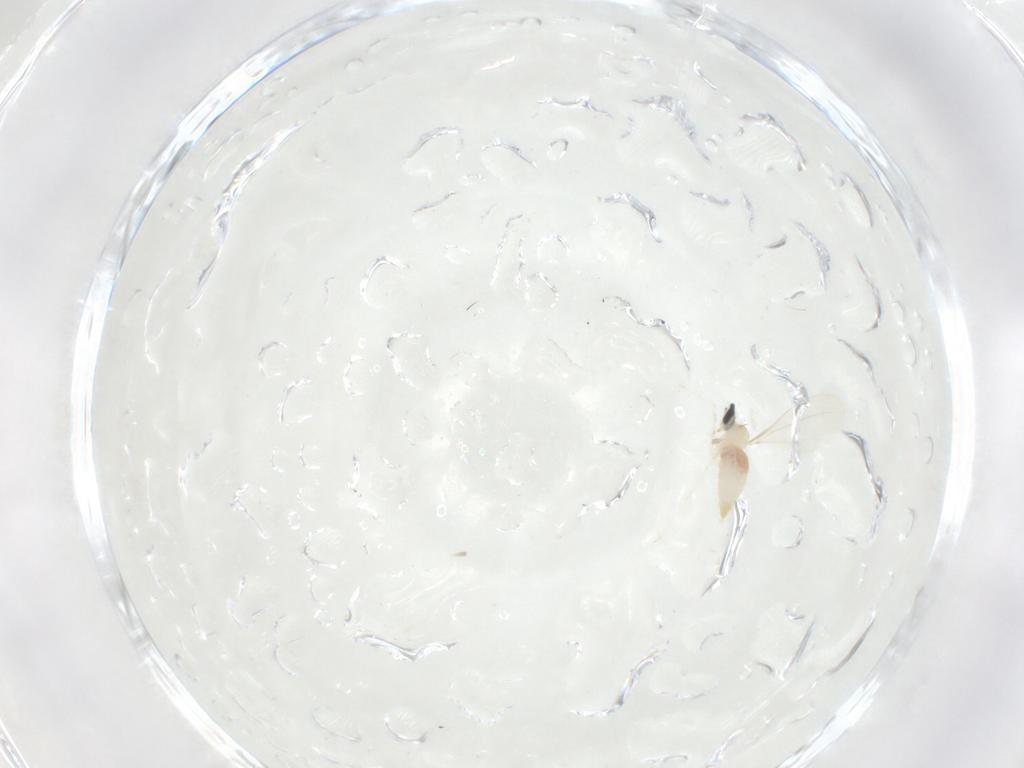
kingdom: Animalia
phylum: Arthropoda
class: Insecta
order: Diptera
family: Cecidomyiidae
